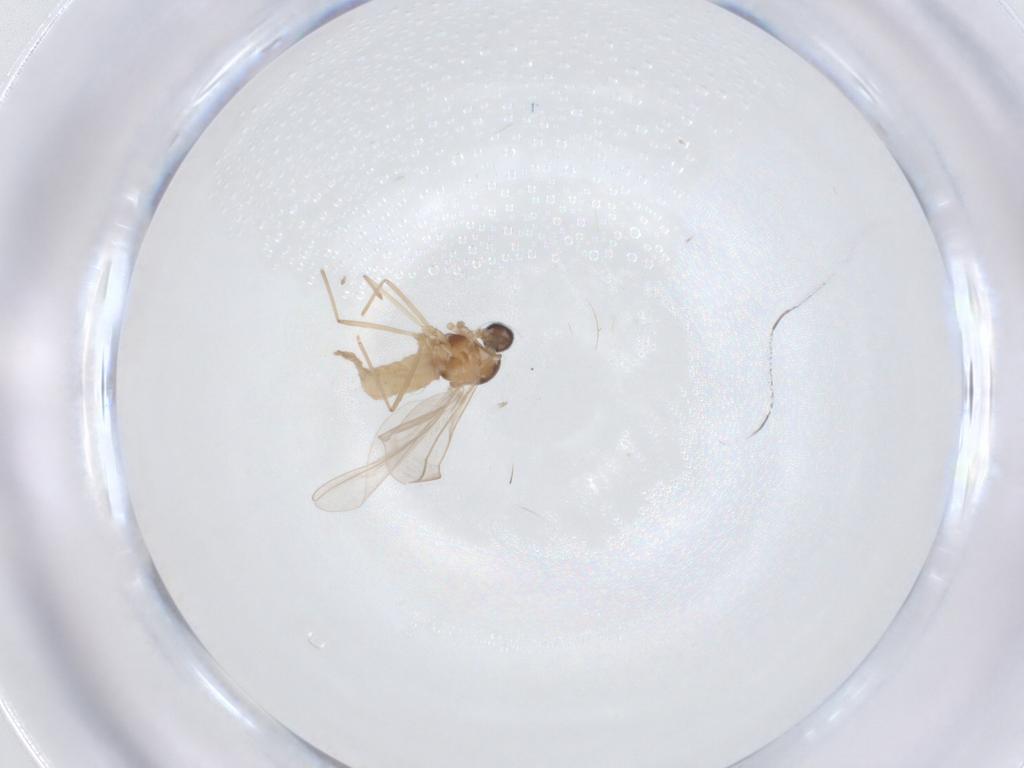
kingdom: Animalia
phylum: Arthropoda
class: Insecta
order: Diptera
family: Cecidomyiidae
